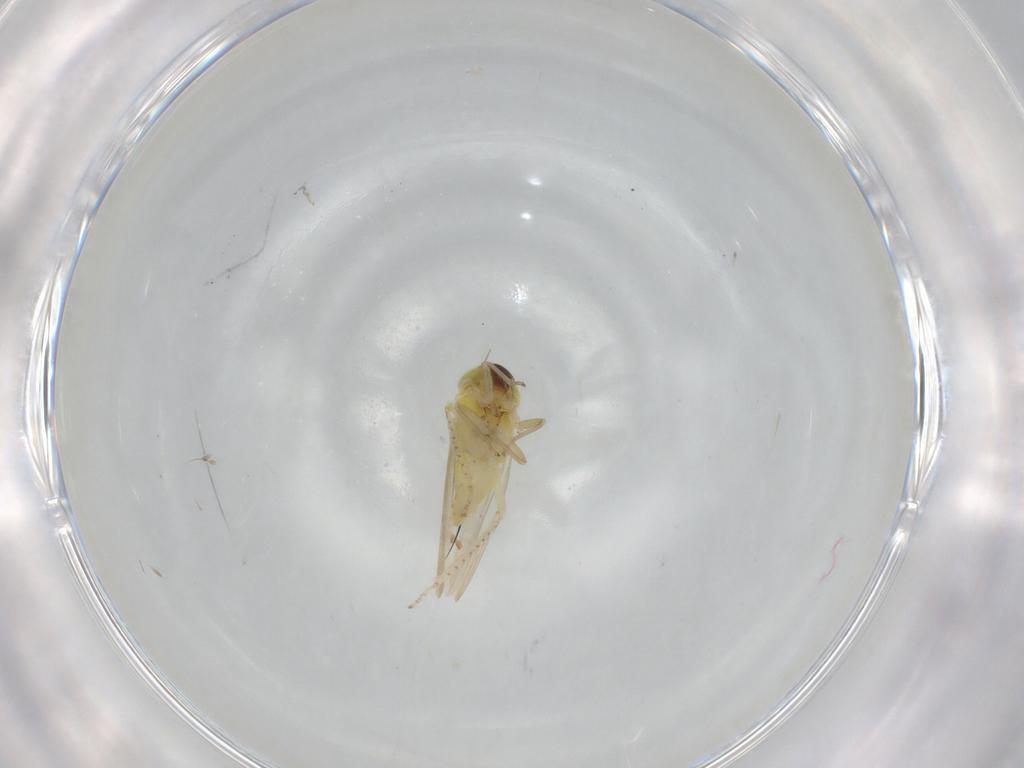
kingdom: Animalia
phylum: Arthropoda
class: Insecta
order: Hemiptera
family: Cicadellidae
